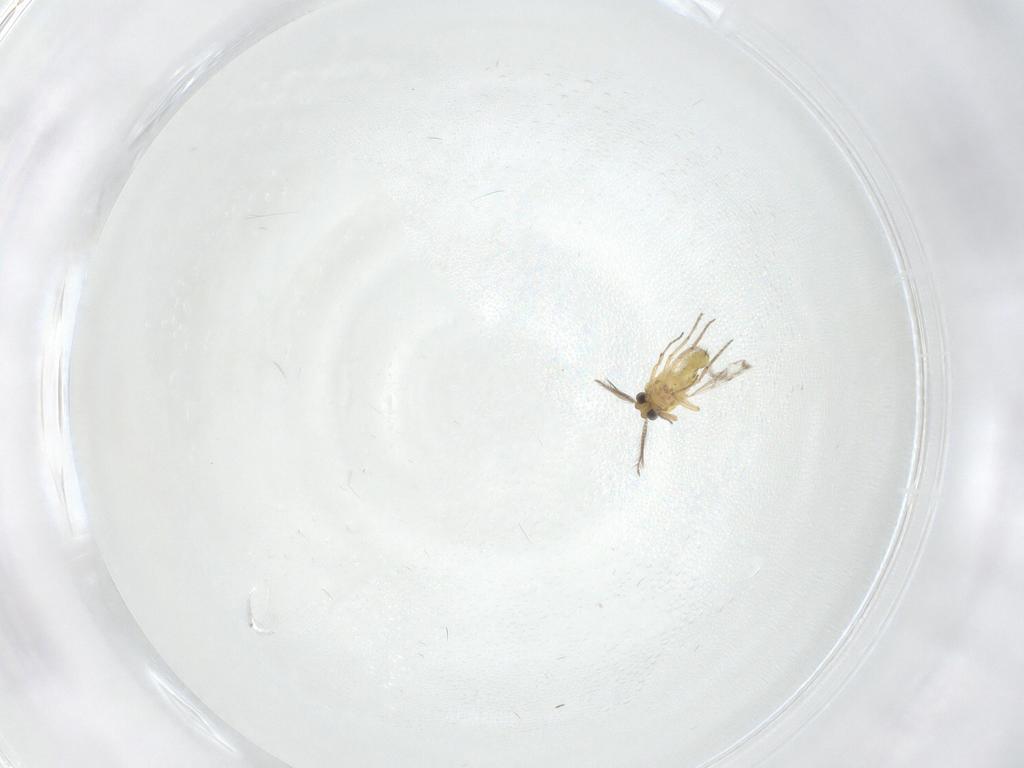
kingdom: Animalia
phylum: Arthropoda
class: Insecta
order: Diptera
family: Ceratopogonidae
